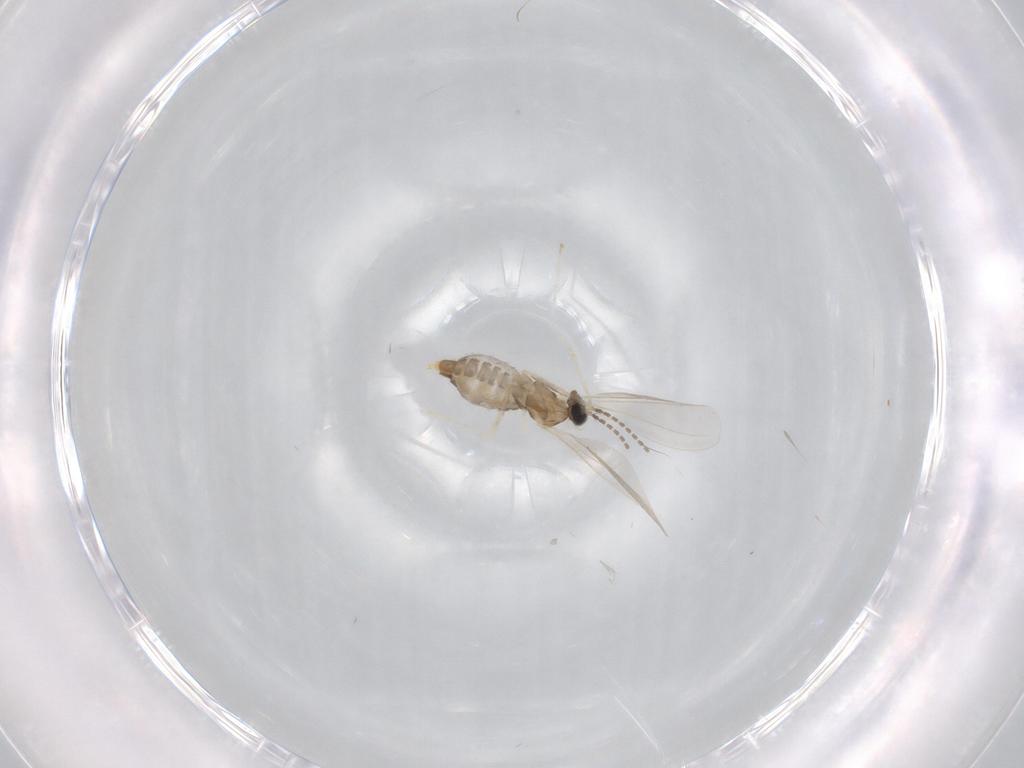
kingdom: Animalia
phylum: Arthropoda
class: Insecta
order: Diptera
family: Cecidomyiidae
